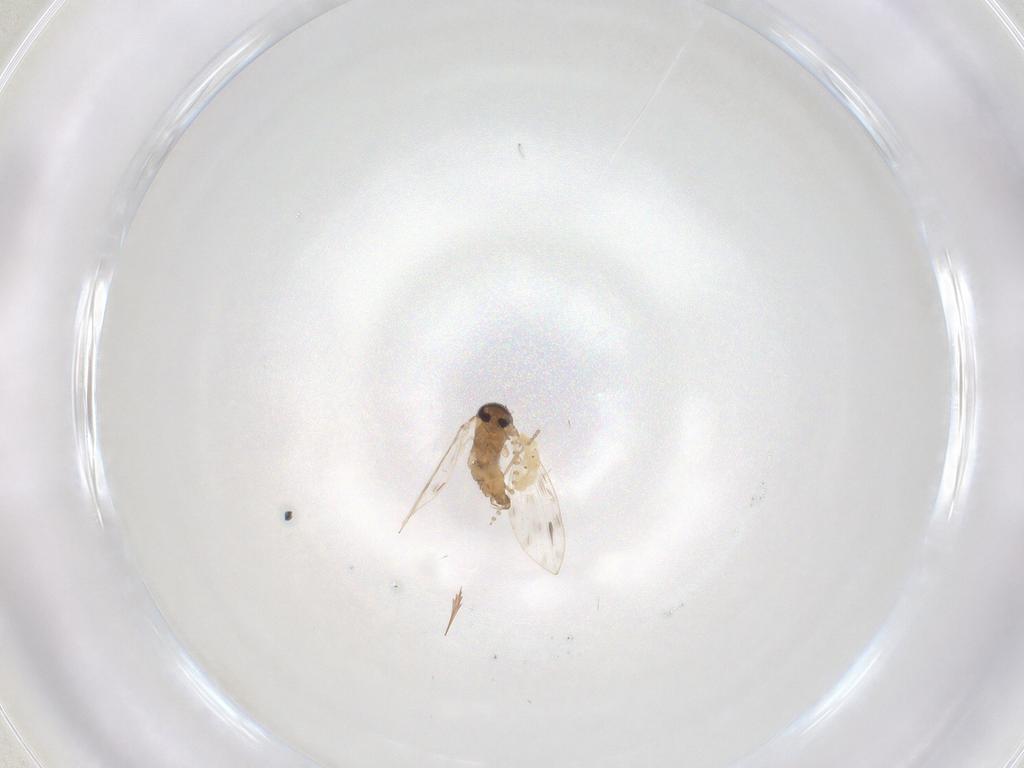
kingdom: Animalia
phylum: Arthropoda
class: Insecta
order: Diptera
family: Psychodidae
